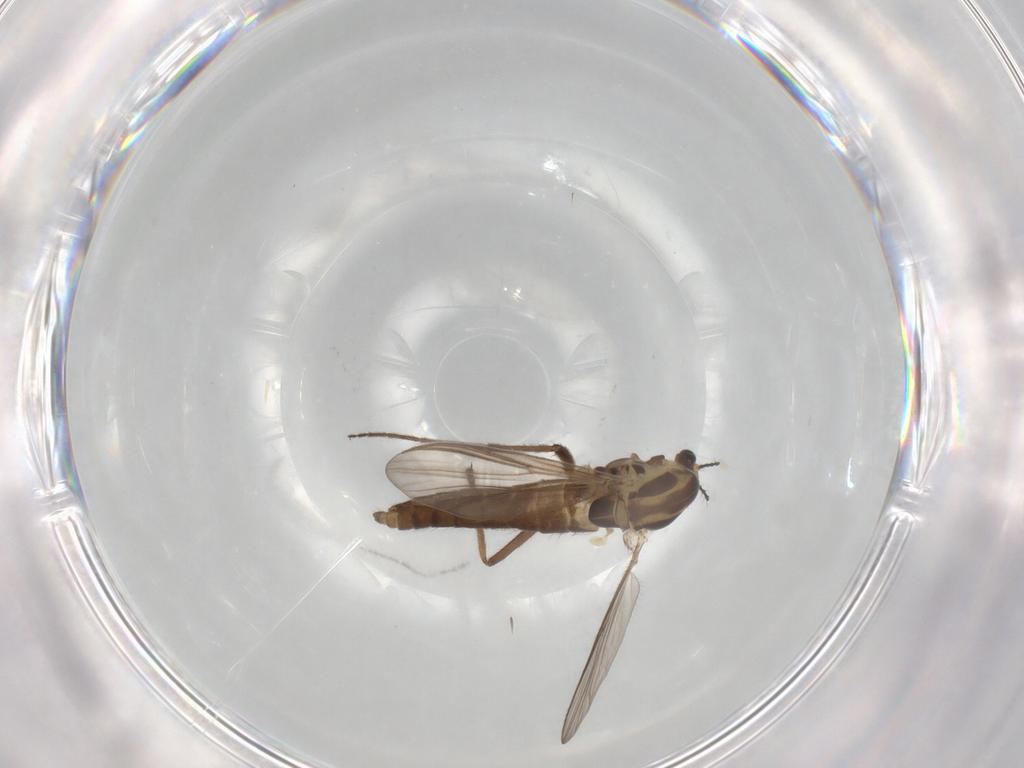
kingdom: Animalia
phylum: Arthropoda
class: Insecta
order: Diptera
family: Chironomidae
